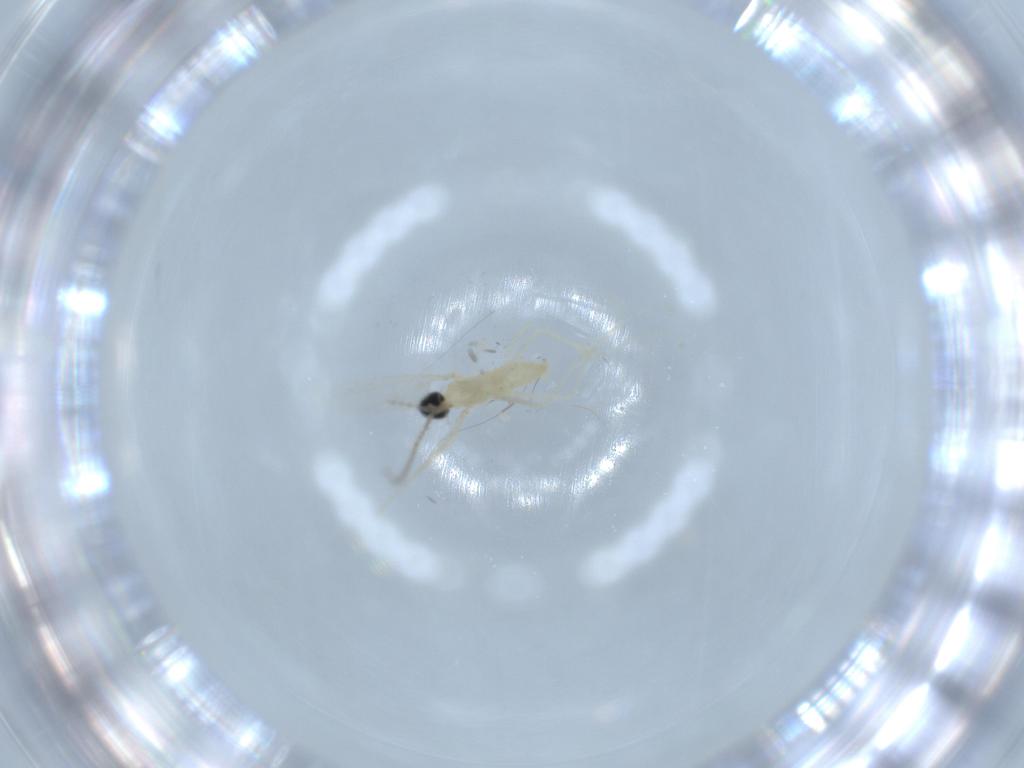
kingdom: Animalia
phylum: Arthropoda
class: Insecta
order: Diptera
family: Cecidomyiidae
